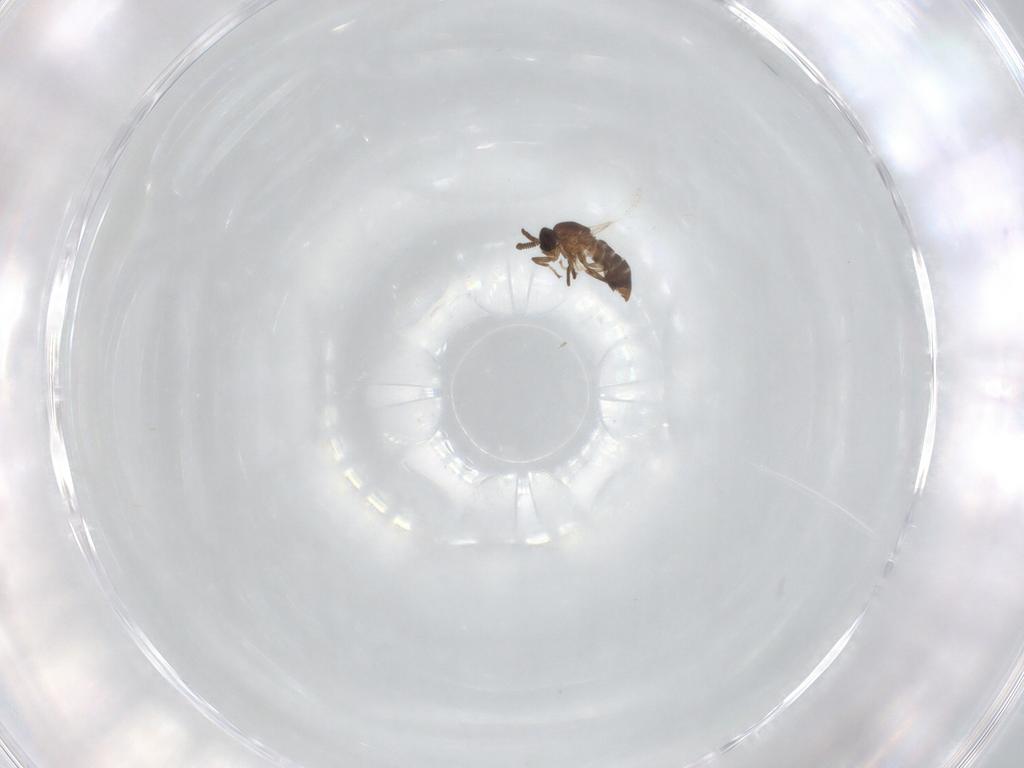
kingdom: Animalia
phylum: Arthropoda
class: Insecta
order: Diptera
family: Scatopsidae
